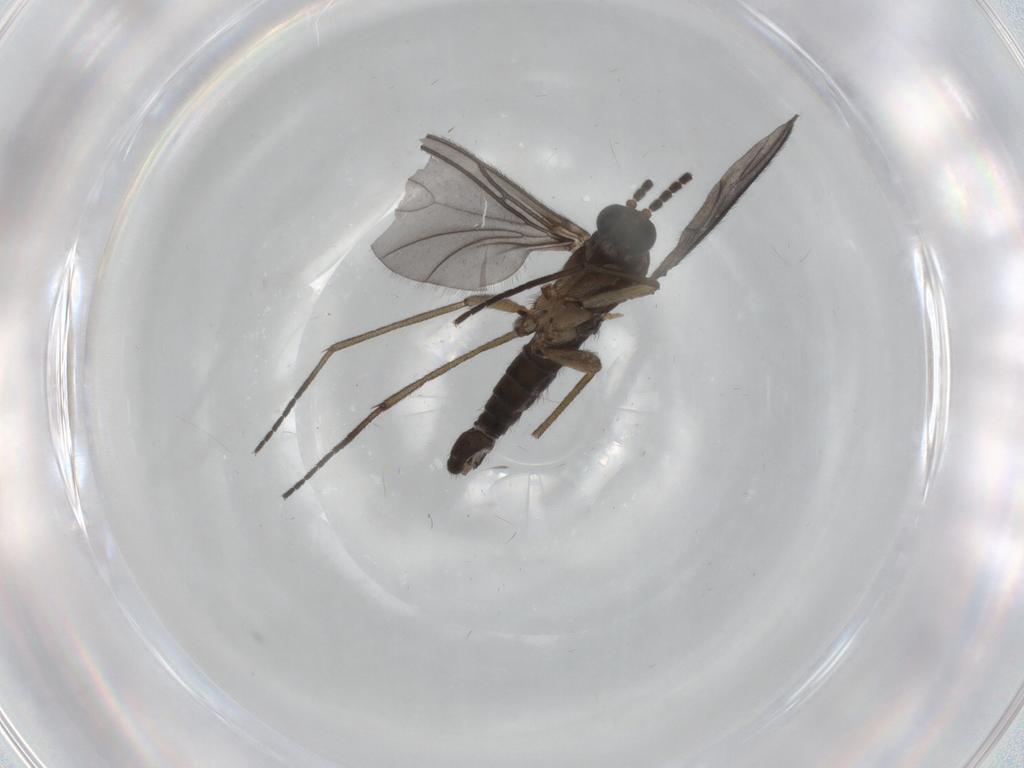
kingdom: Animalia
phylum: Arthropoda
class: Insecta
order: Diptera
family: Sciaridae
